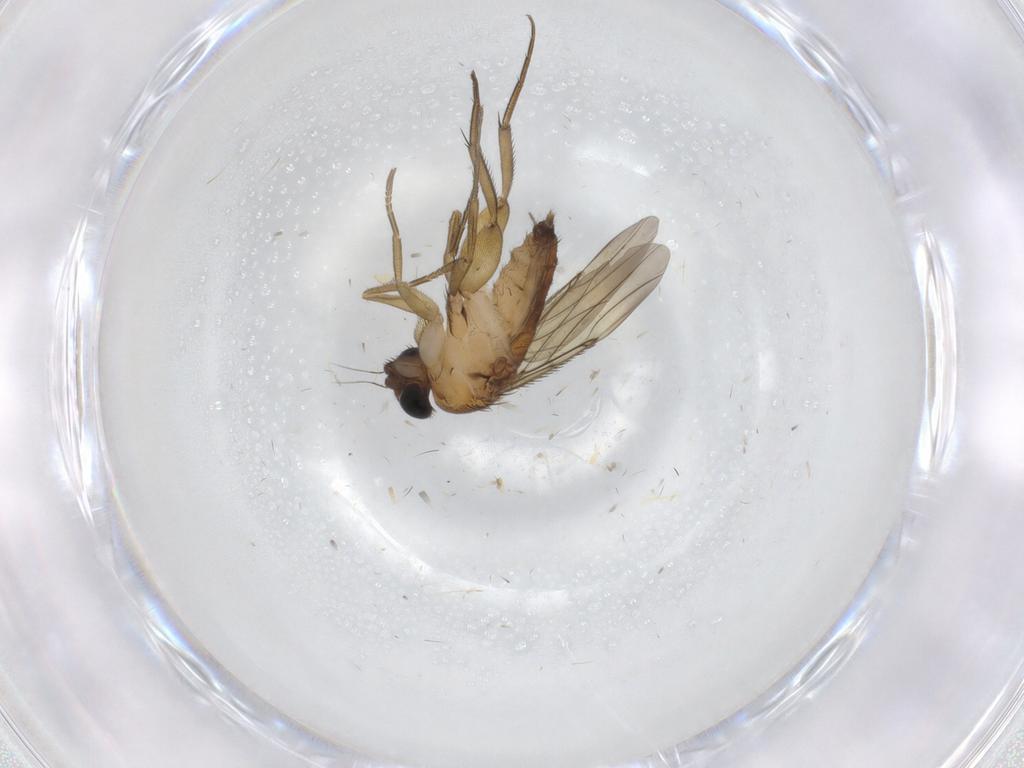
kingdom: Animalia
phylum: Arthropoda
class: Insecta
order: Diptera
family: Phoridae
